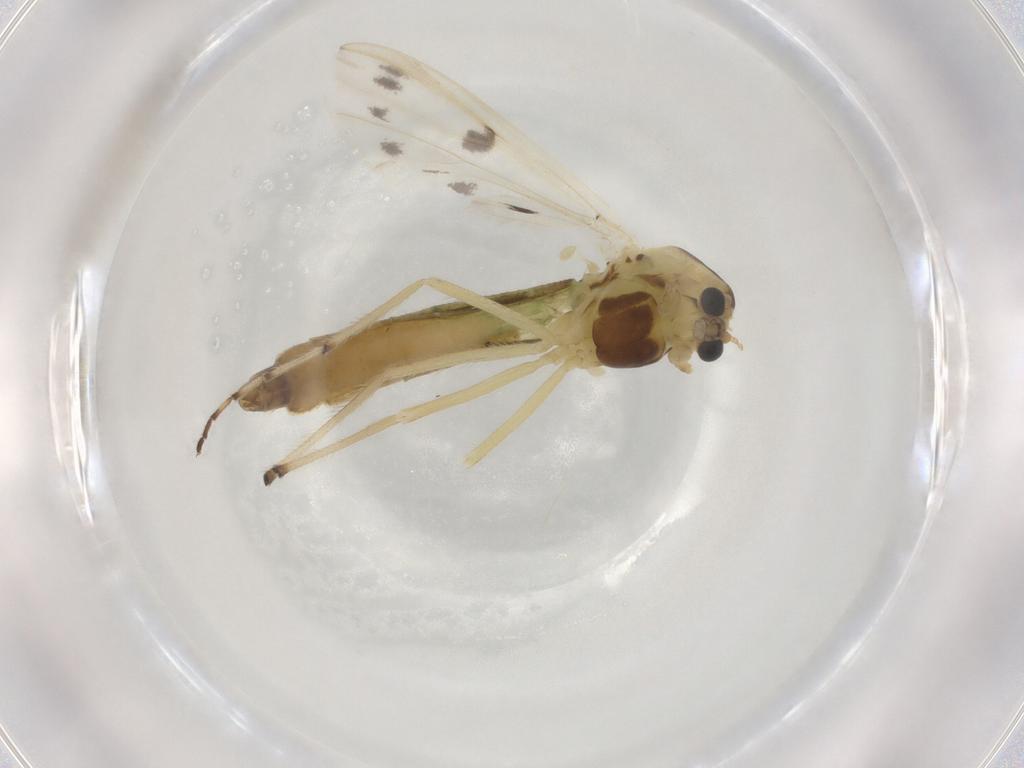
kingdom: Animalia
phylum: Arthropoda
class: Insecta
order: Diptera
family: Chironomidae
